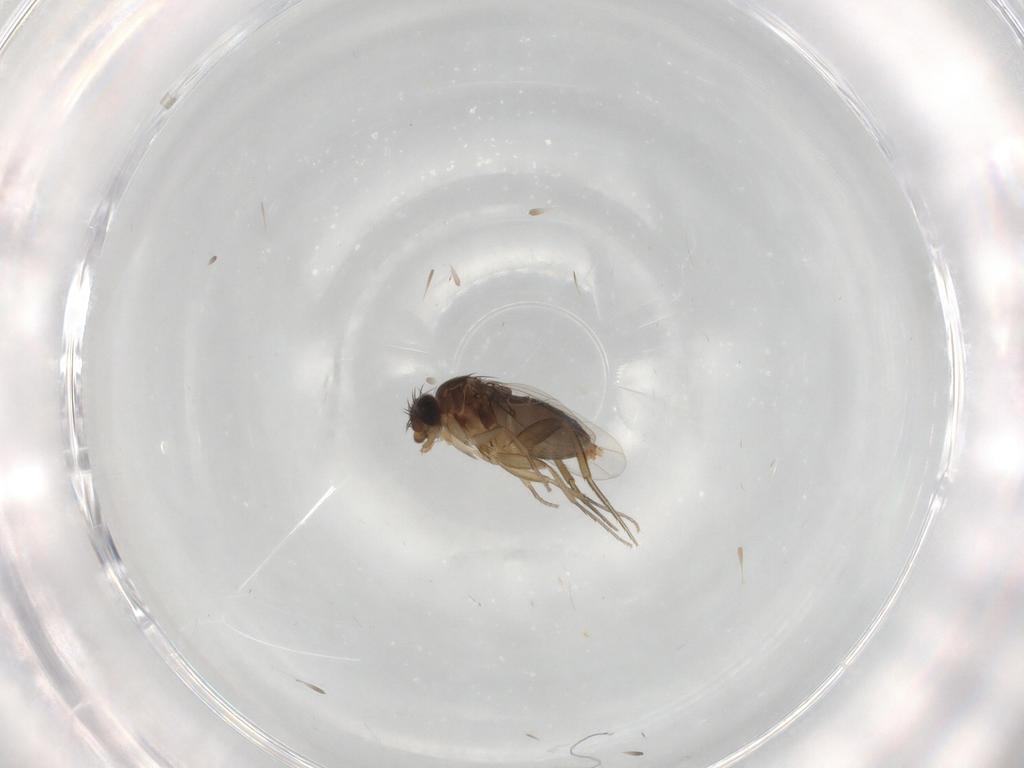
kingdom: Animalia
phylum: Arthropoda
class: Insecta
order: Diptera
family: Phoridae
